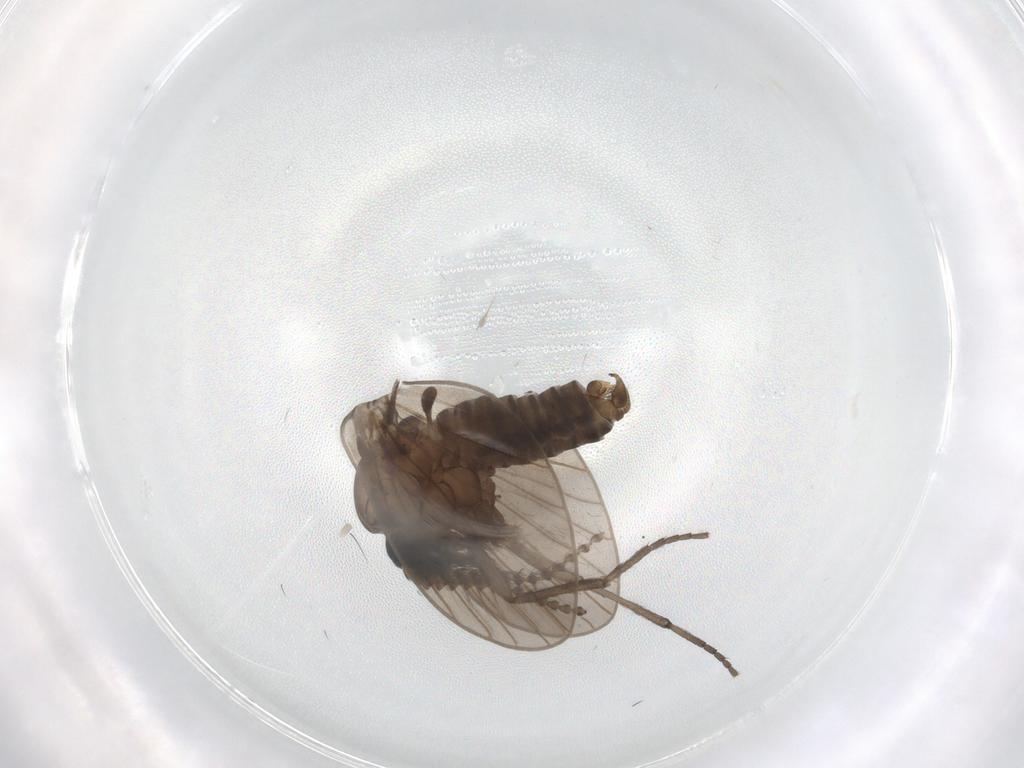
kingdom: Animalia
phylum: Arthropoda
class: Insecta
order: Diptera
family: Psychodidae
